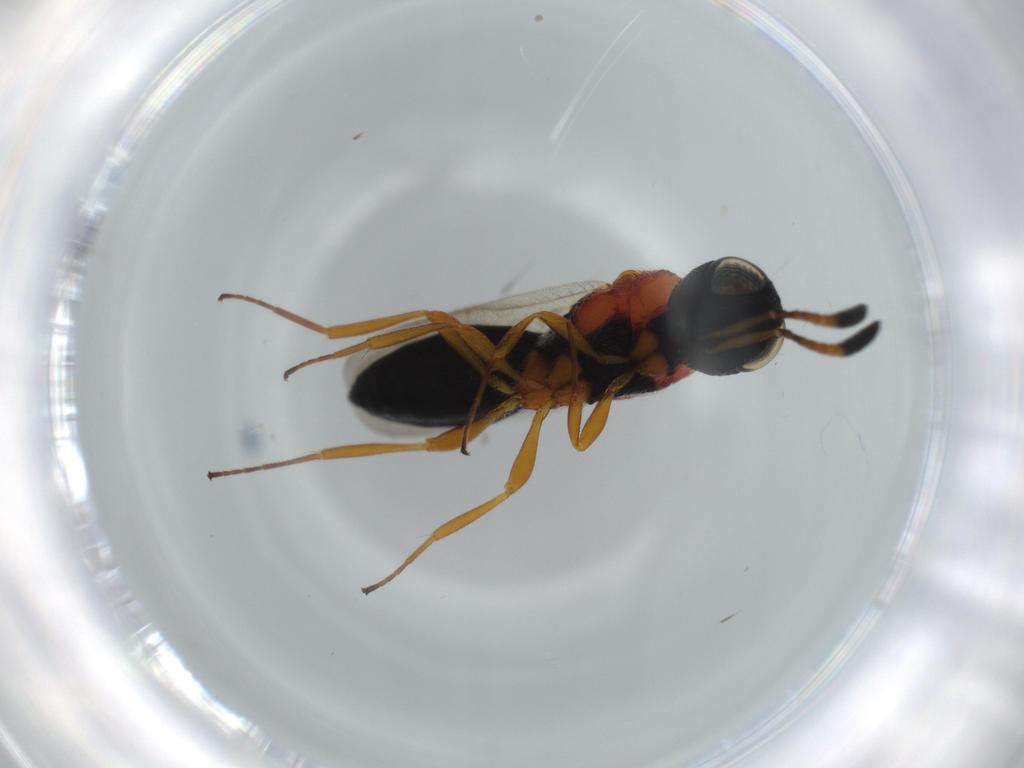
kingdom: Animalia
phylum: Arthropoda
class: Insecta
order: Hymenoptera
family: Scelionidae
